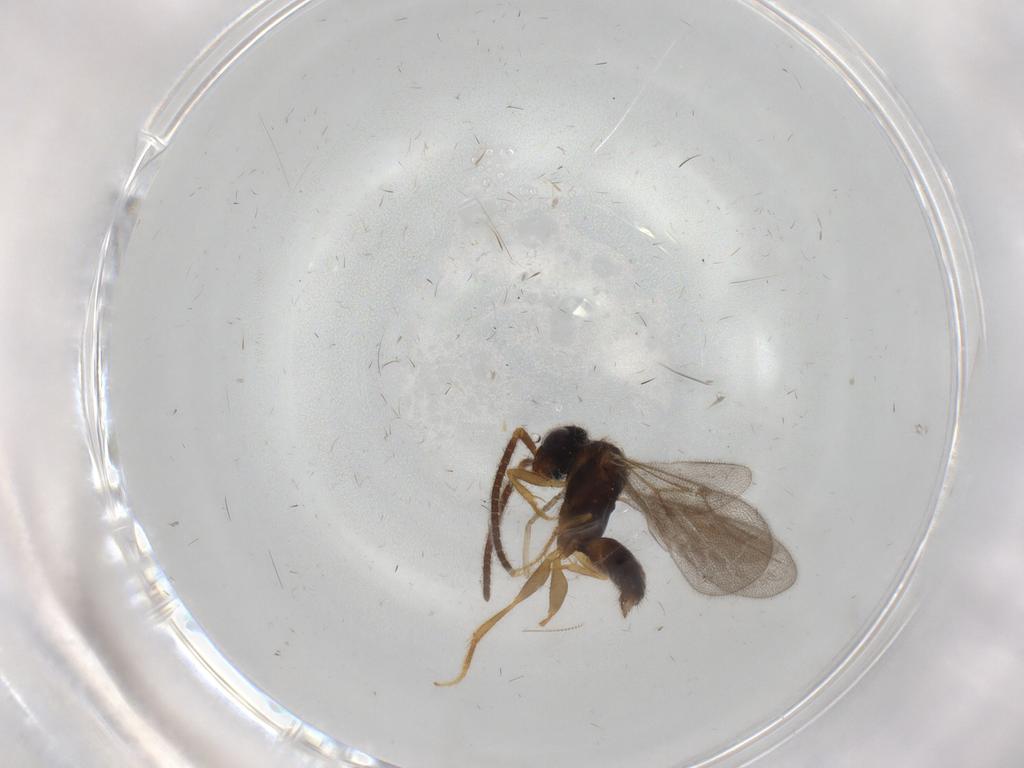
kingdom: Animalia
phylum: Arthropoda
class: Insecta
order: Hymenoptera
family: Bethylidae
